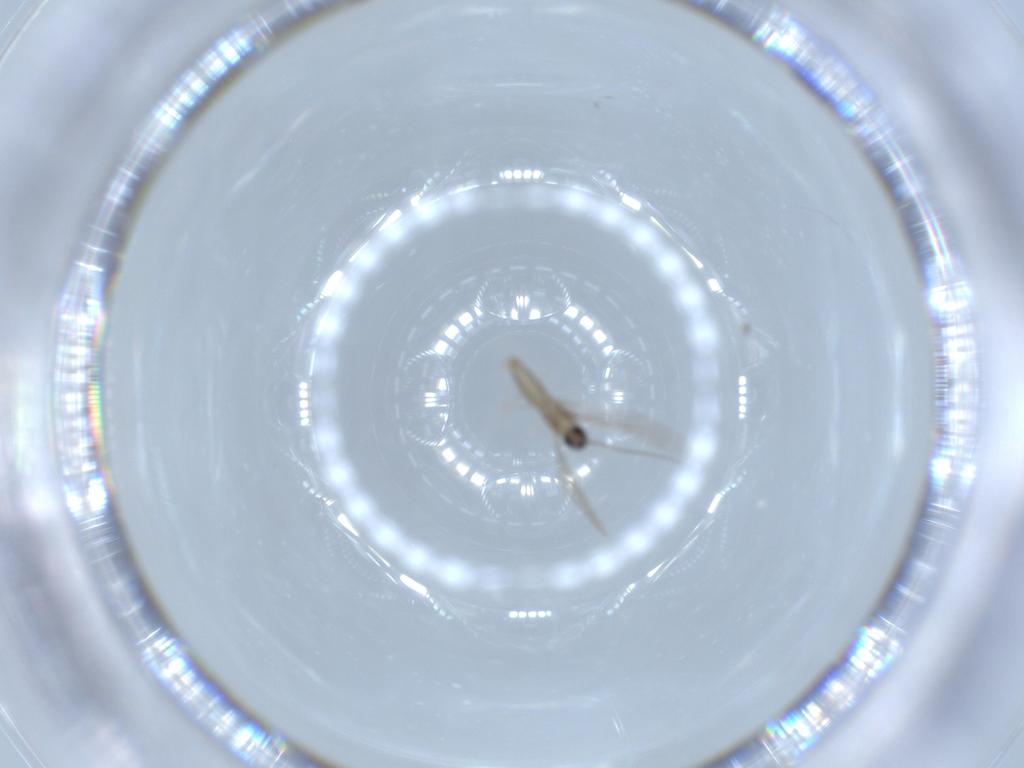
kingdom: Animalia
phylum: Arthropoda
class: Insecta
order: Diptera
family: Cecidomyiidae
